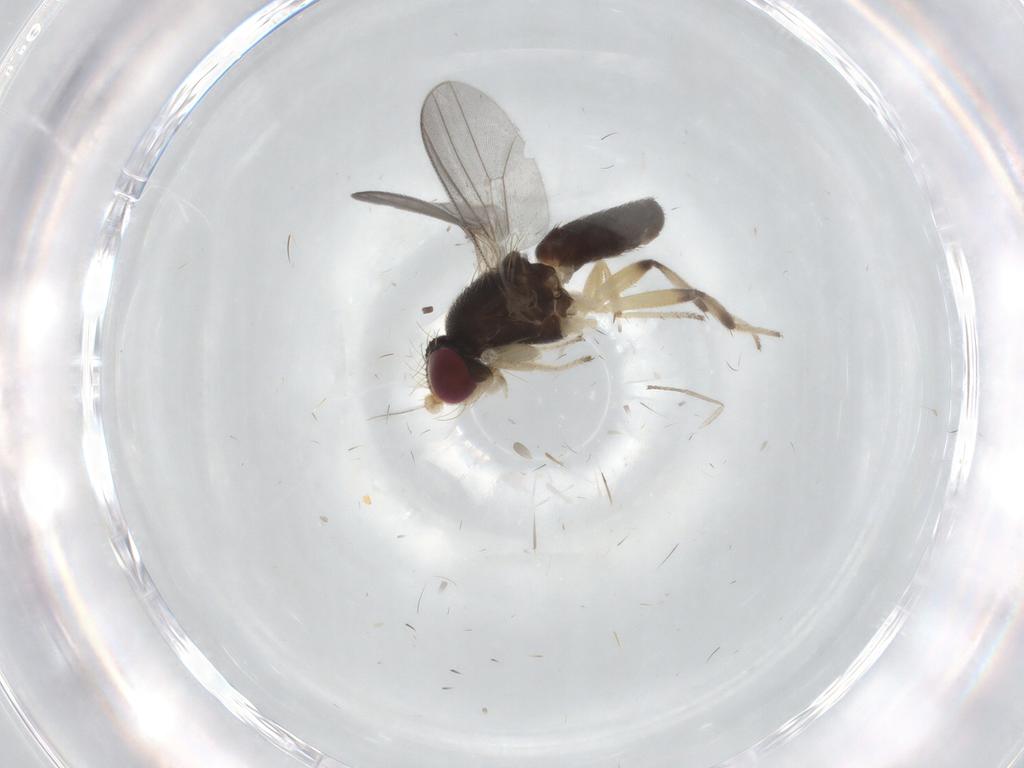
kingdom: Animalia
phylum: Arthropoda
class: Insecta
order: Diptera
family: Clusiidae
